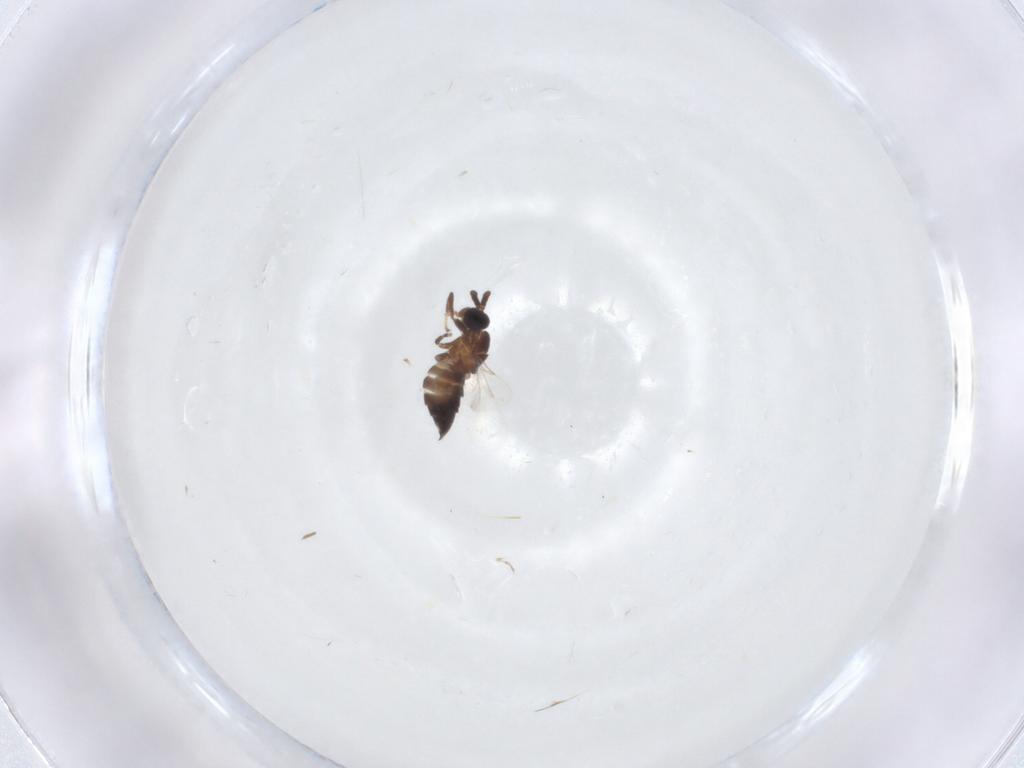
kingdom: Animalia
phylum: Arthropoda
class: Insecta
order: Diptera
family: Scatopsidae
